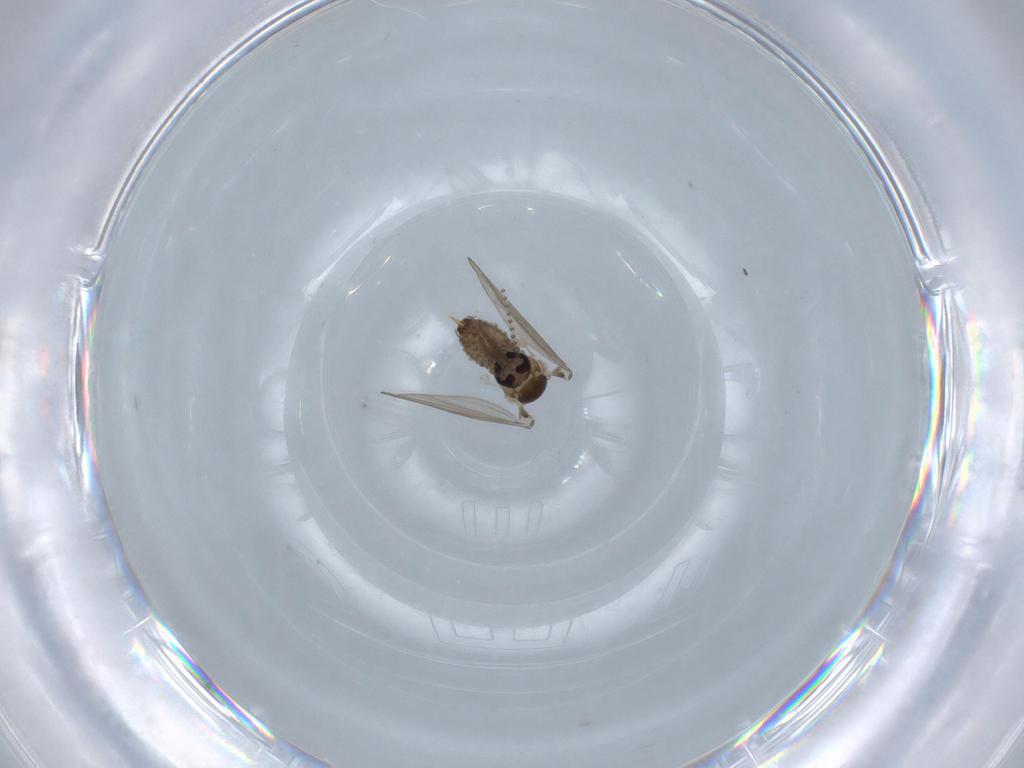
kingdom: Animalia
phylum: Arthropoda
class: Insecta
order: Diptera
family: Psychodidae
